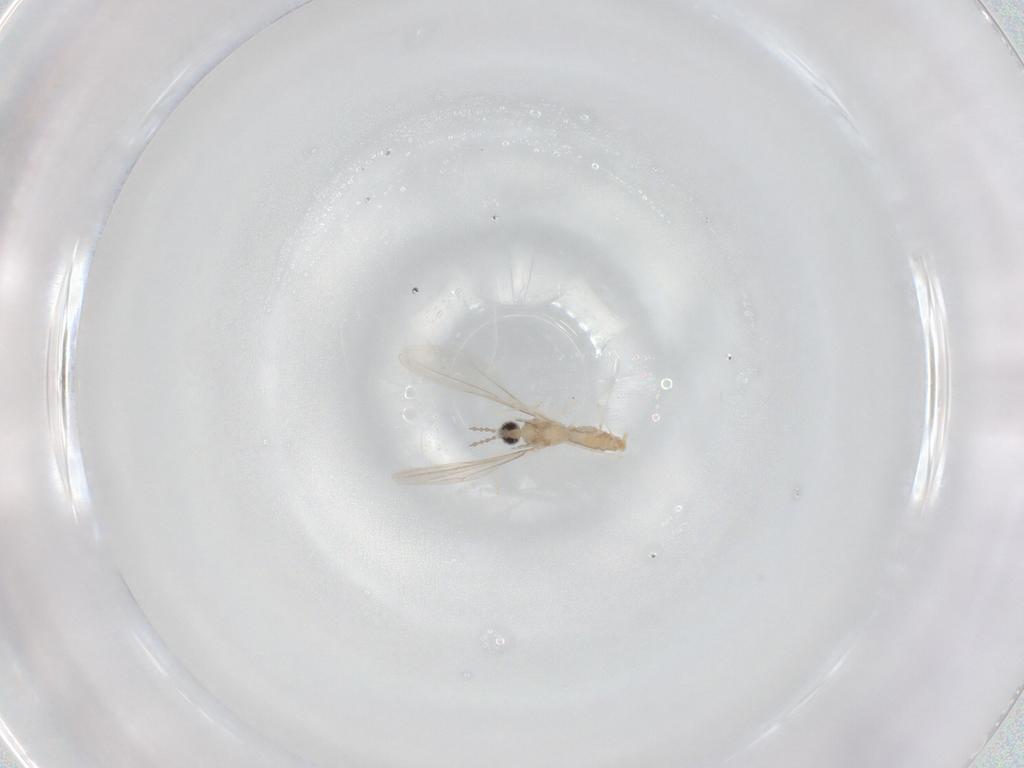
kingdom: Animalia
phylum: Arthropoda
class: Insecta
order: Diptera
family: Cecidomyiidae
